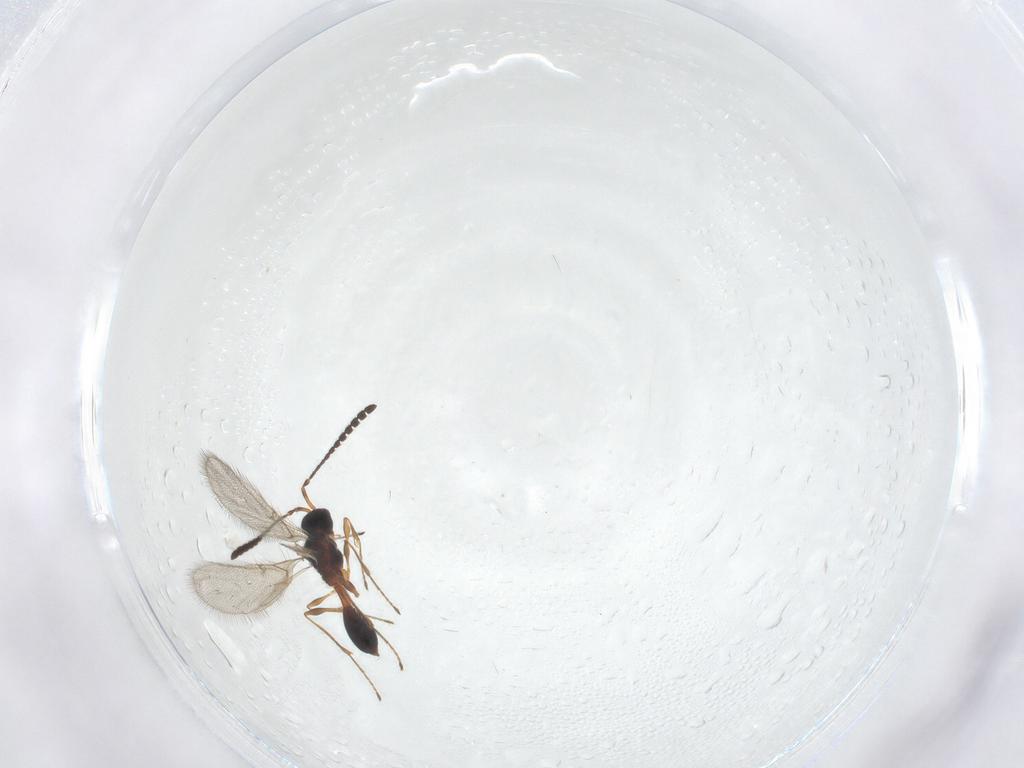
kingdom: Animalia
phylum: Arthropoda
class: Insecta
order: Hymenoptera
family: Diapriidae
